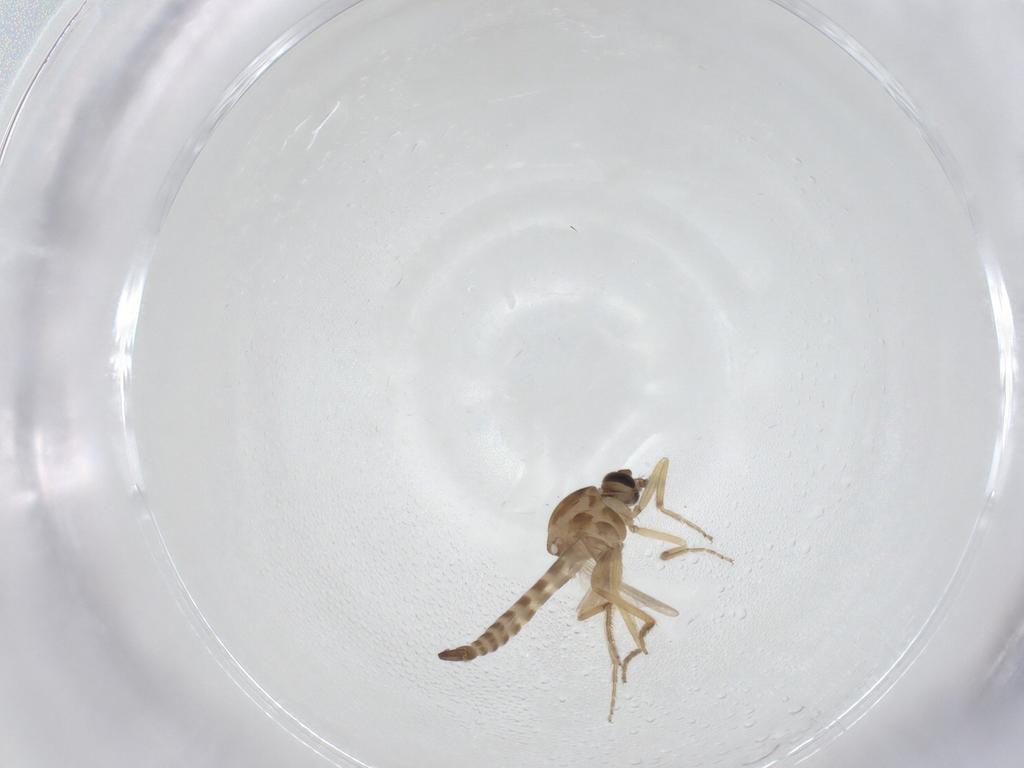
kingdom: Animalia
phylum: Arthropoda
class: Insecta
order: Diptera
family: Ceratopogonidae
